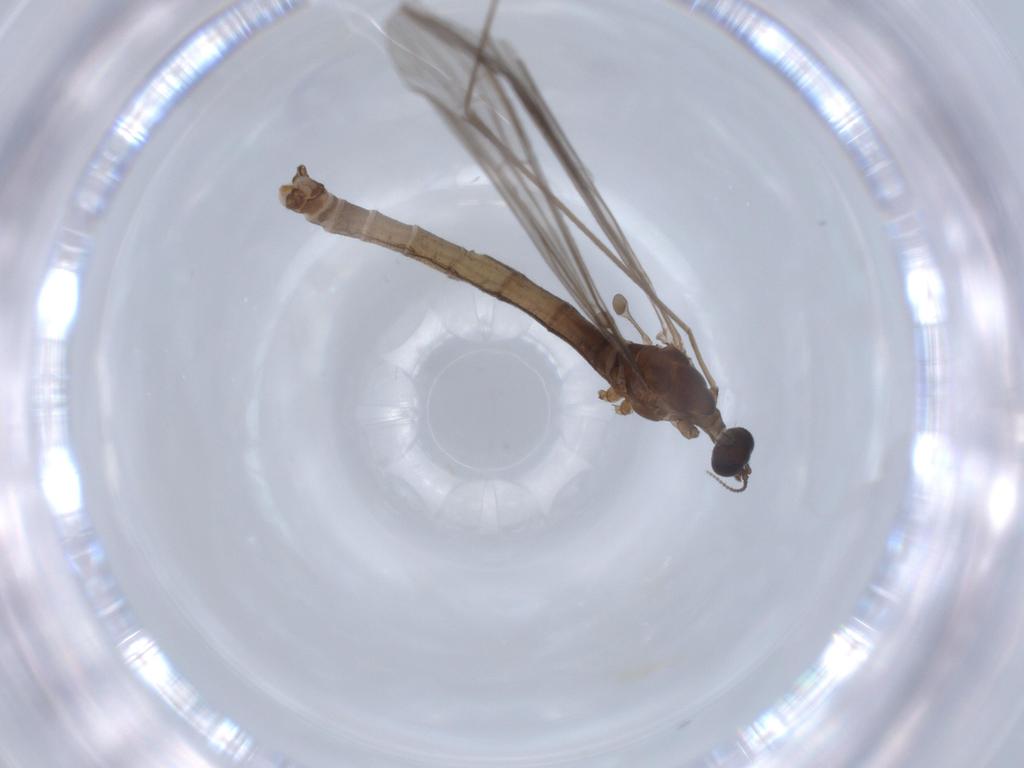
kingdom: Animalia
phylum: Arthropoda
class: Insecta
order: Diptera
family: Limoniidae
